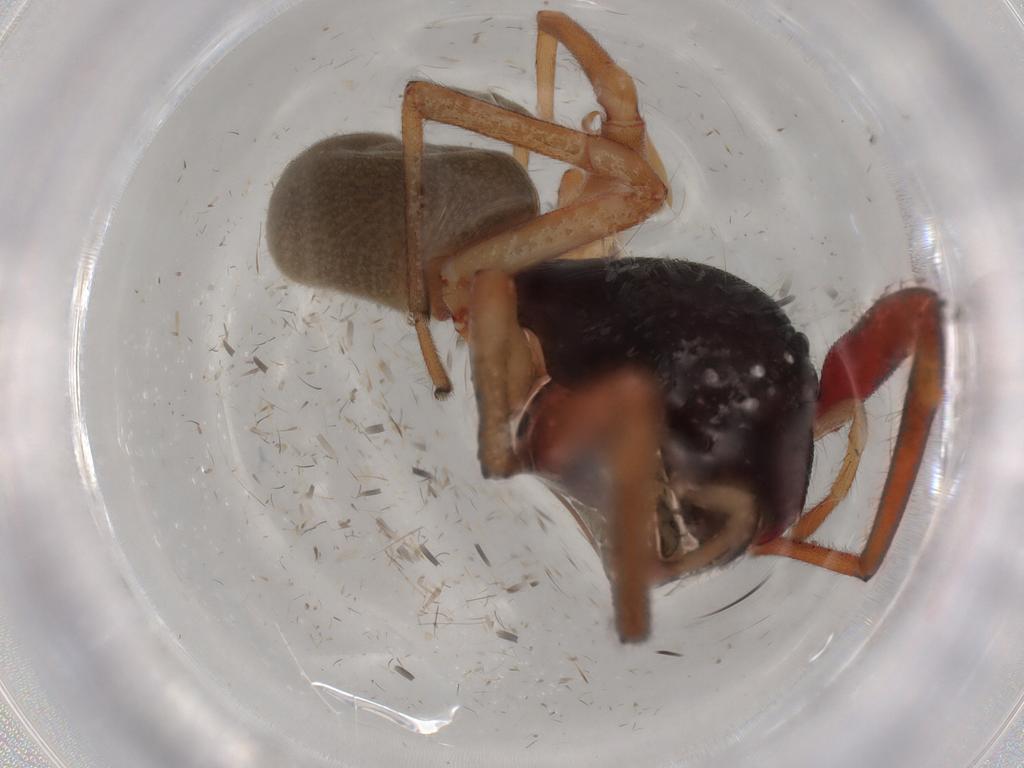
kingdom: Animalia
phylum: Arthropoda
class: Arachnida
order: Araneae
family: Trachelidae
